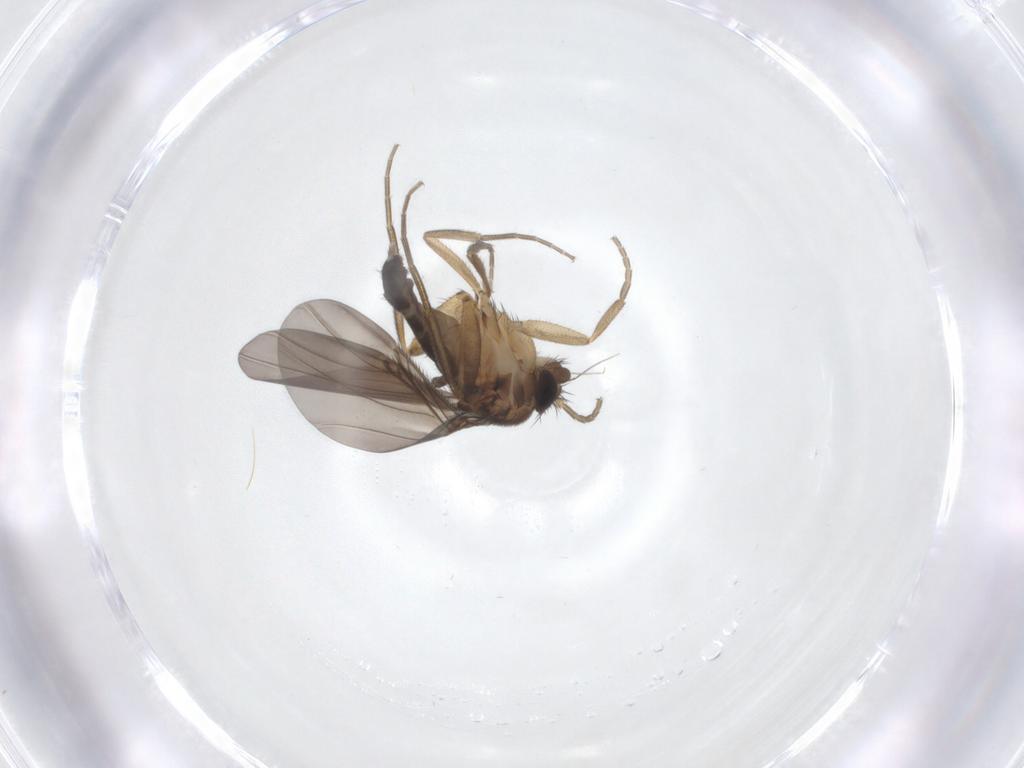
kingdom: Animalia
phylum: Arthropoda
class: Insecta
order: Diptera
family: Phoridae
